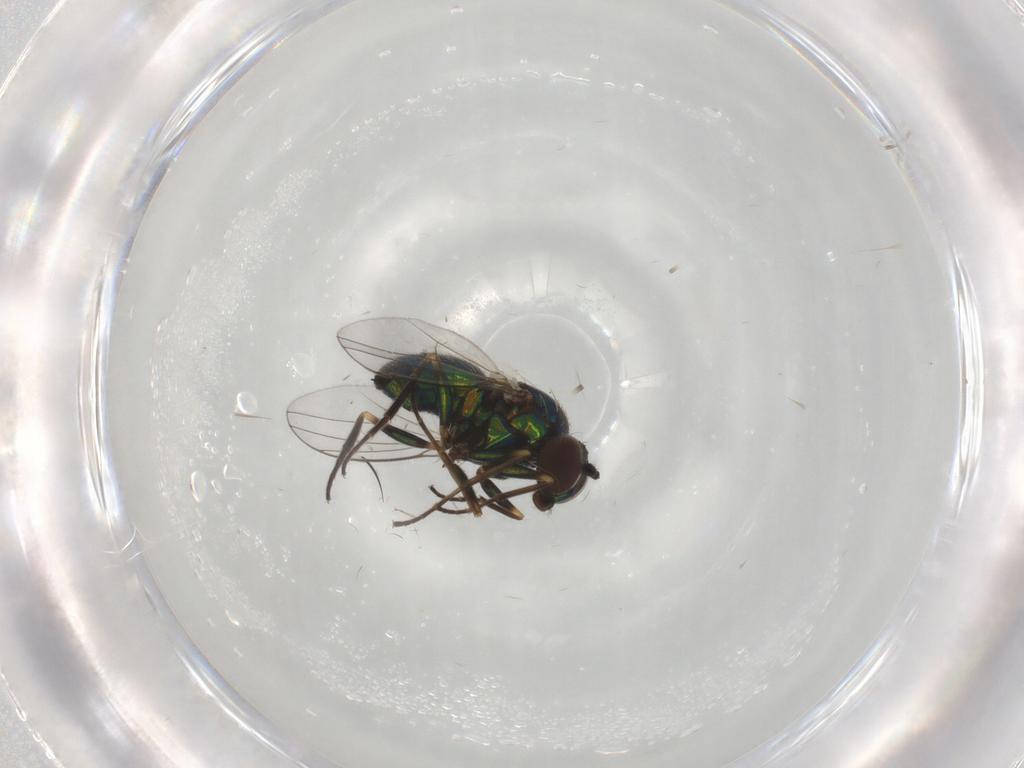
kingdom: Animalia
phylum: Arthropoda
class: Insecta
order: Diptera
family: Dolichopodidae
